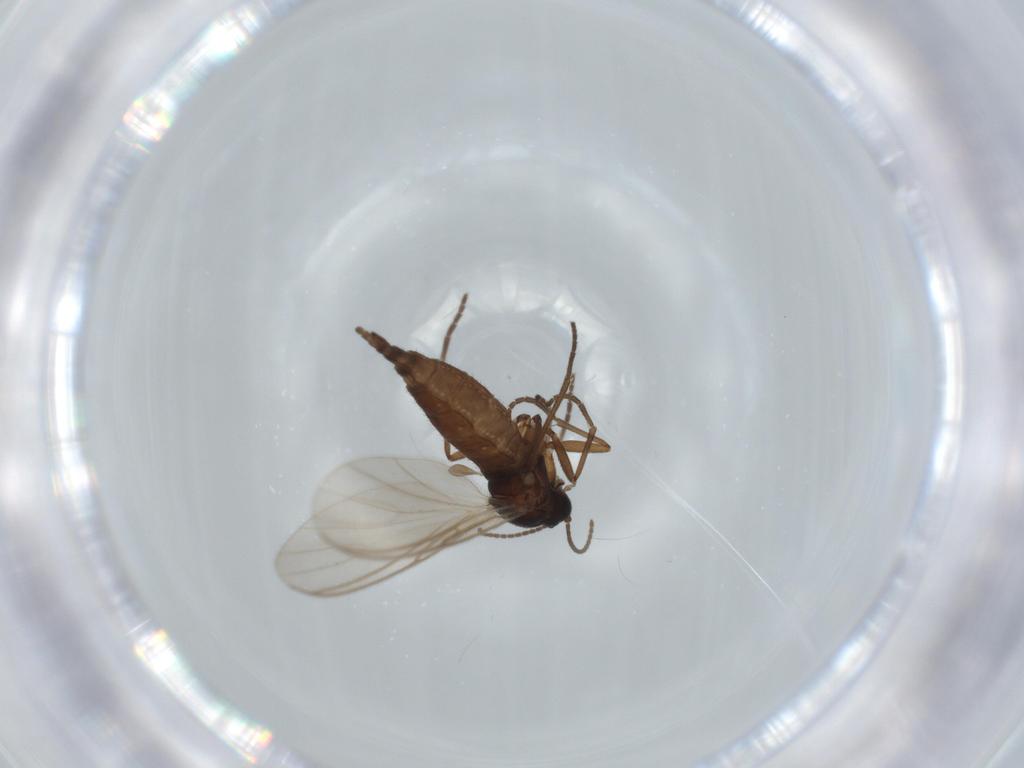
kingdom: Animalia
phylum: Arthropoda
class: Insecta
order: Diptera
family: Sciaridae
